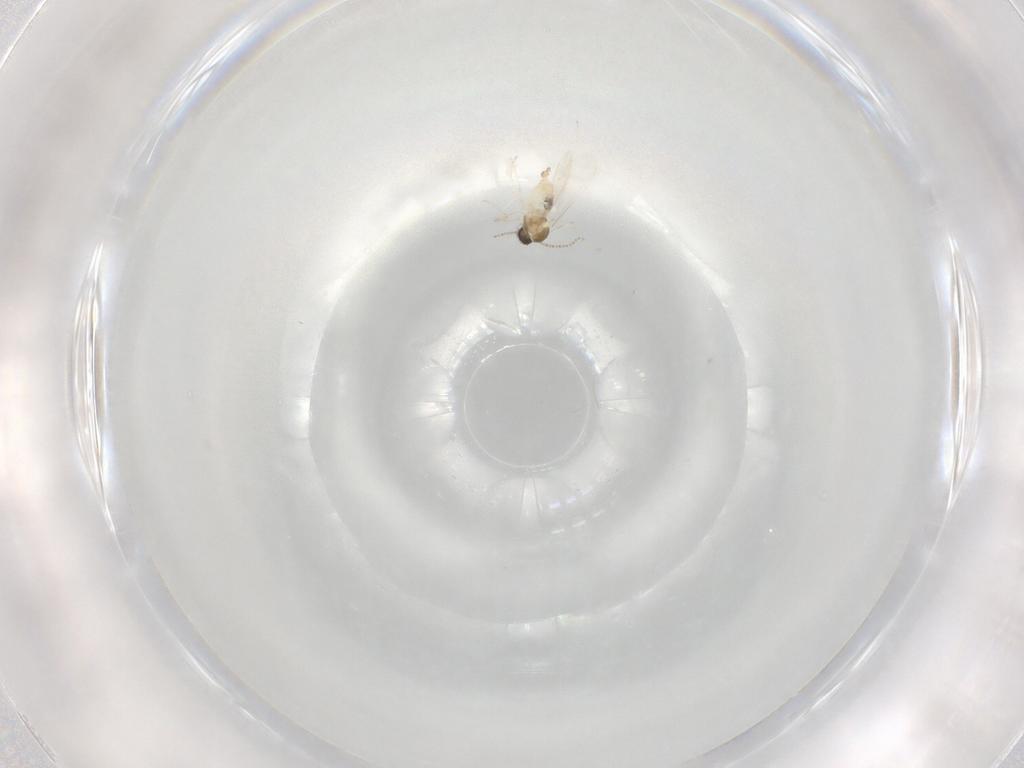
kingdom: Animalia
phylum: Arthropoda
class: Insecta
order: Diptera
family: Cecidomyiidae
